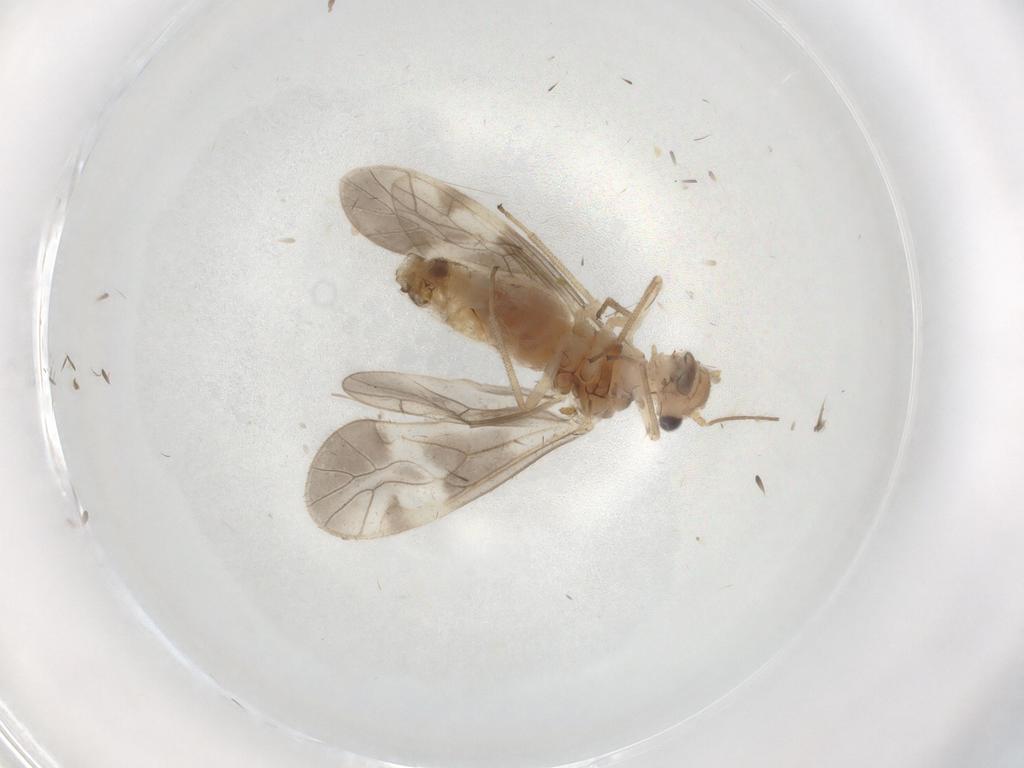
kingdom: Animalia
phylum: Arthropoda
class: Insecta
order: Psocodea
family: Caeciliusidae
